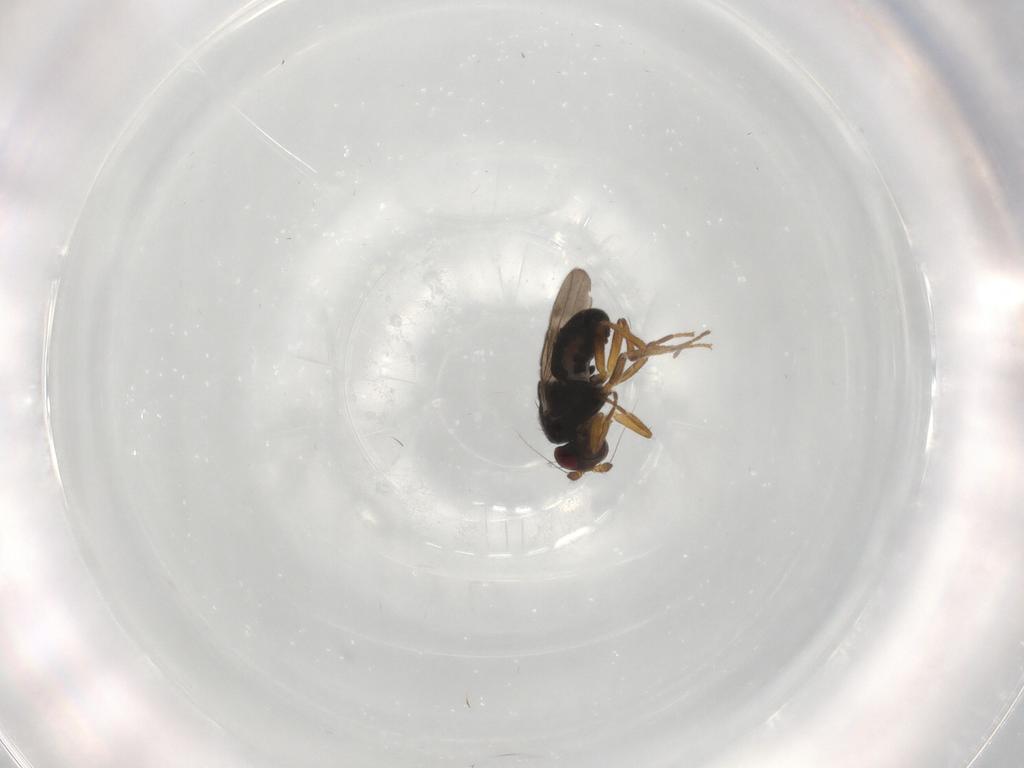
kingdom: Animalia
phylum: Arthropoda
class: Insecta
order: Diptera
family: Sphaeroceridae
